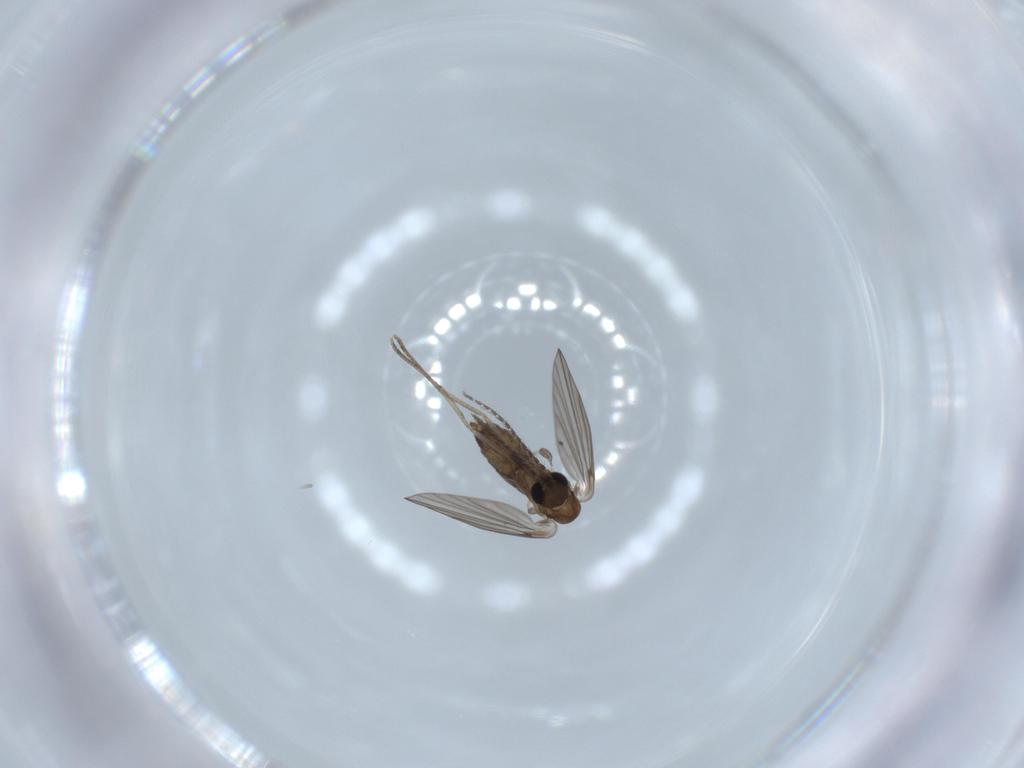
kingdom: Animalia
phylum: Arthropoda
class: Insecta
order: Diptera
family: Psychodidae
